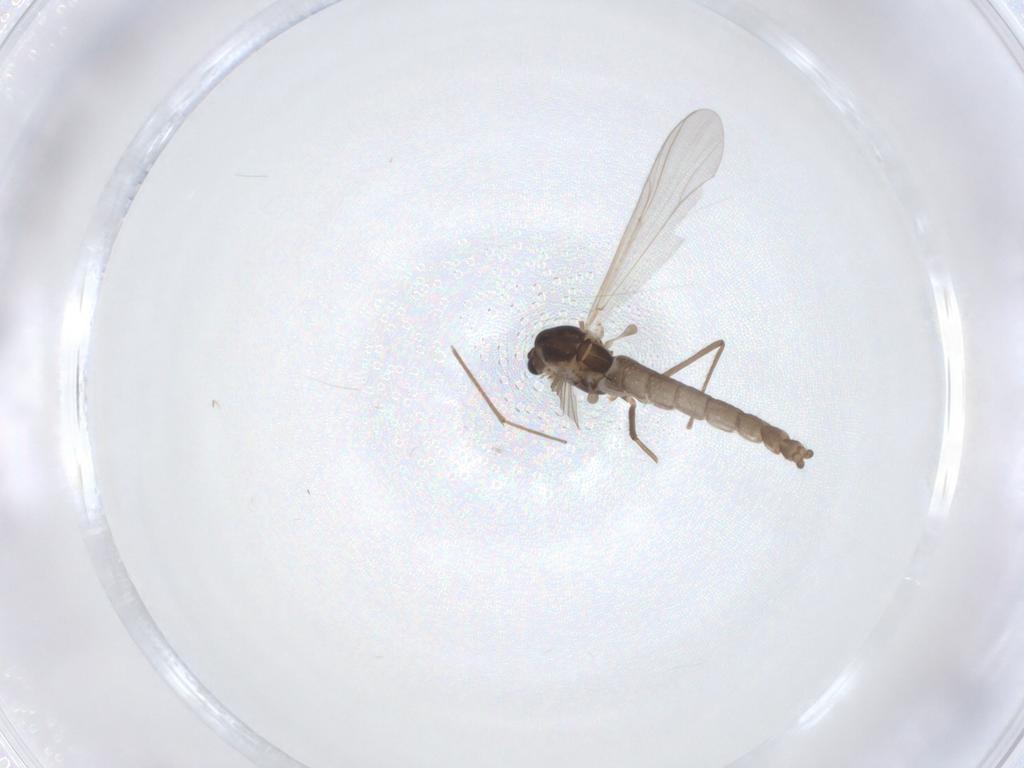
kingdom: Animalia
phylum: Arthropoda
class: Insecta
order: Diptera
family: Chironomidae
